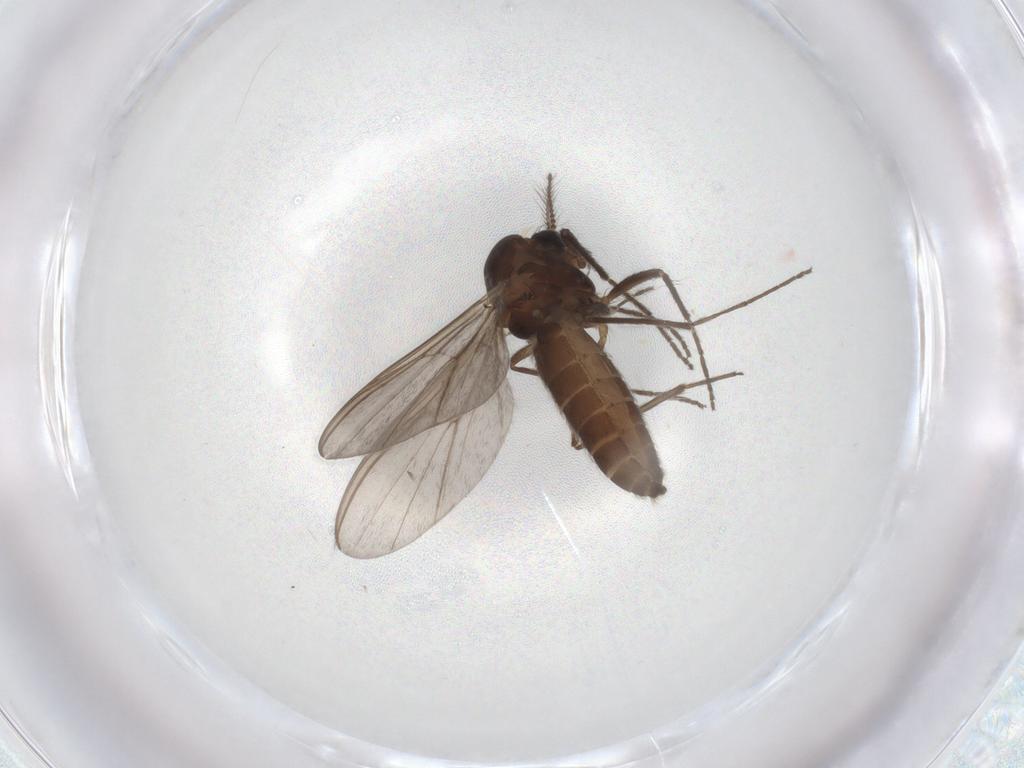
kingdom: Animalia
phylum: Arthropoda
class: Insecta
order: Diptera
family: Chironomidae
